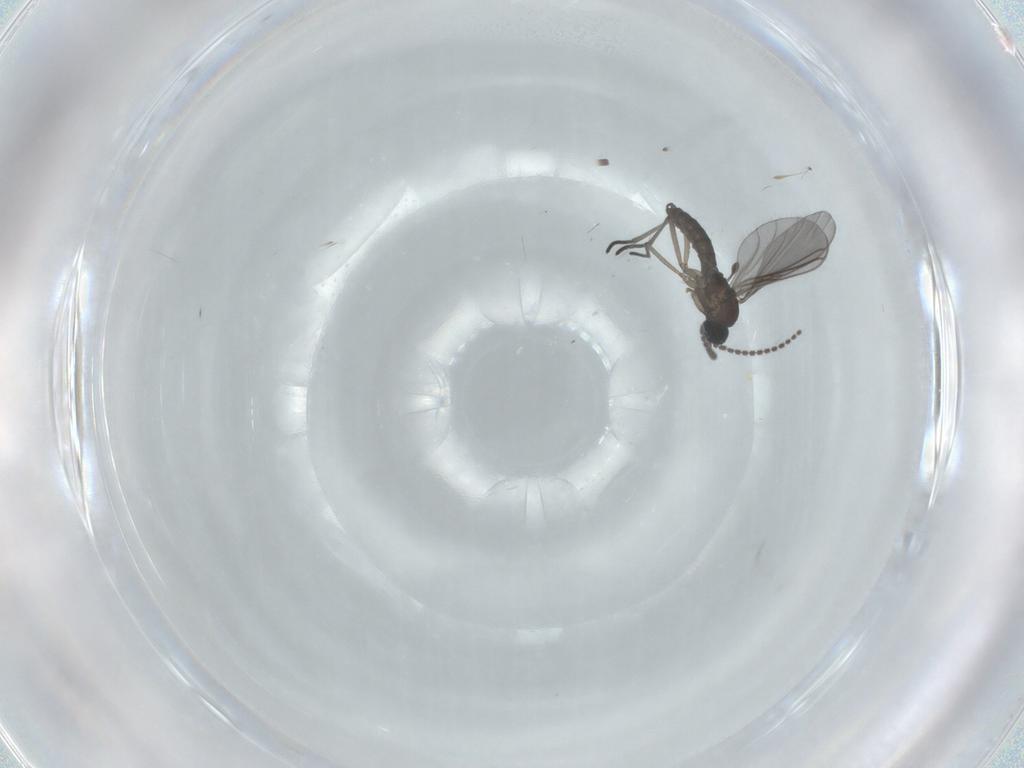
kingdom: Animalia
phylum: Arthropoda
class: Insecta
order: Diptera
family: Sciaridae
